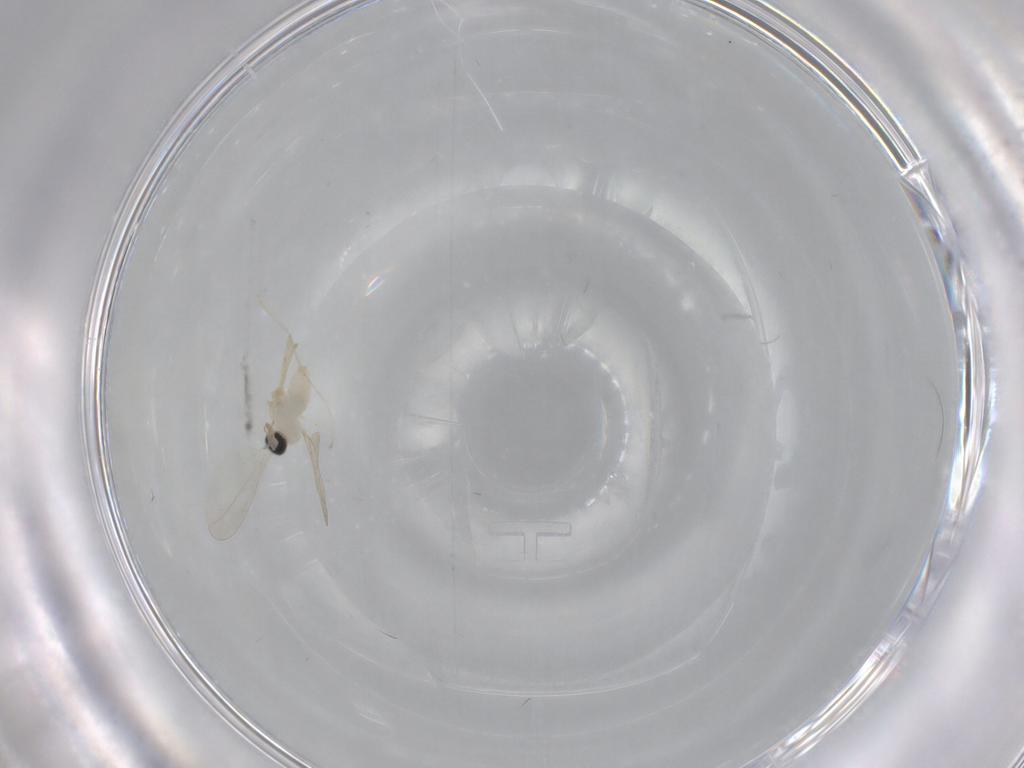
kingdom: Animalia
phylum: Arthropoda
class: Insecta
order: Diptera
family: Cecidomyiidae
